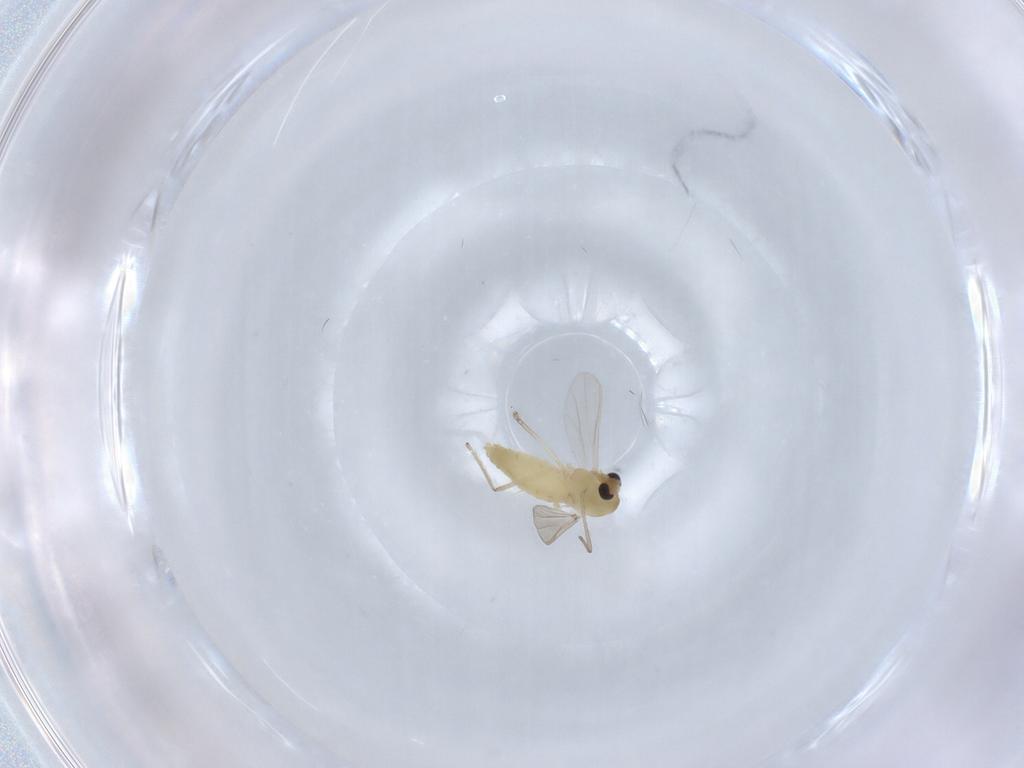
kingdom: Animalia
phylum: Arthropoda
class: Insecta
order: Diptera
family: Chironomidae
